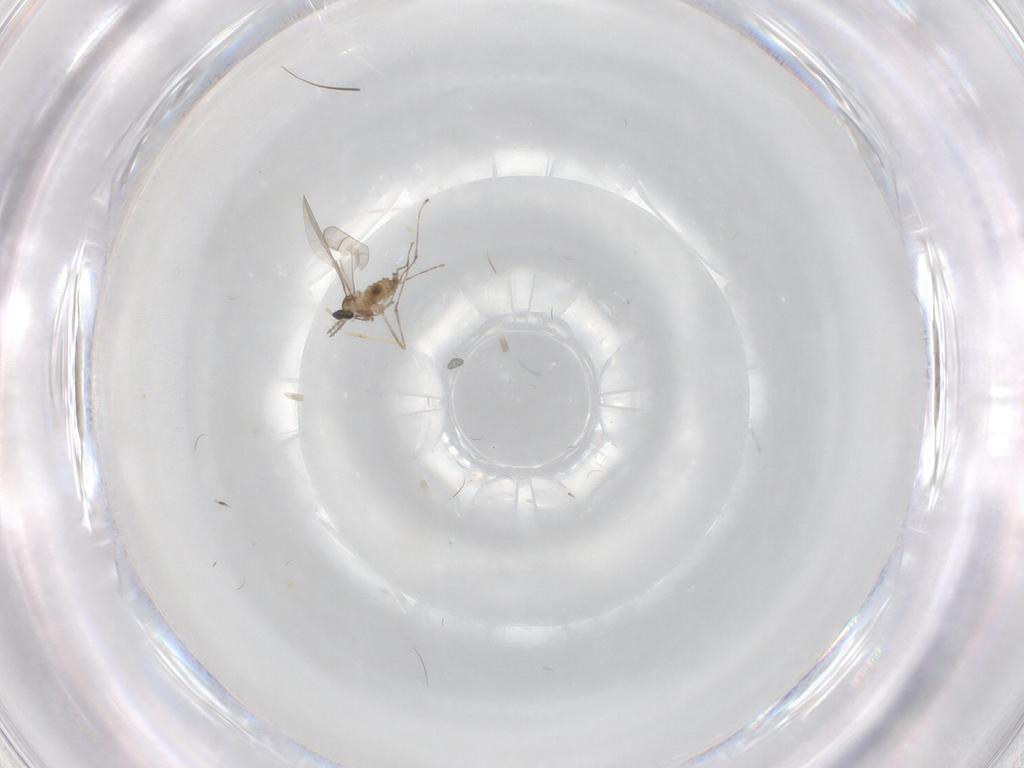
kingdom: Animalia
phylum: Arthropoda
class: Insecta
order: Diptera
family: Phoridae
